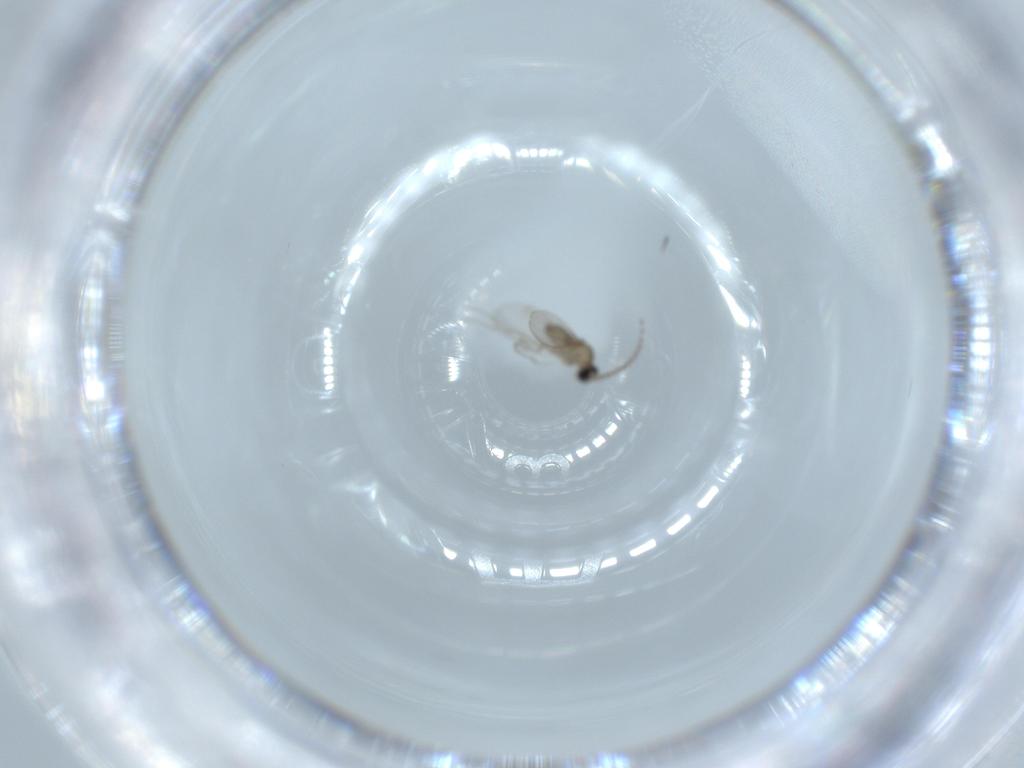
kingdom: Animalia
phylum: Arthropoda
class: Insecta
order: Diptera
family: Cecidomyiidae
